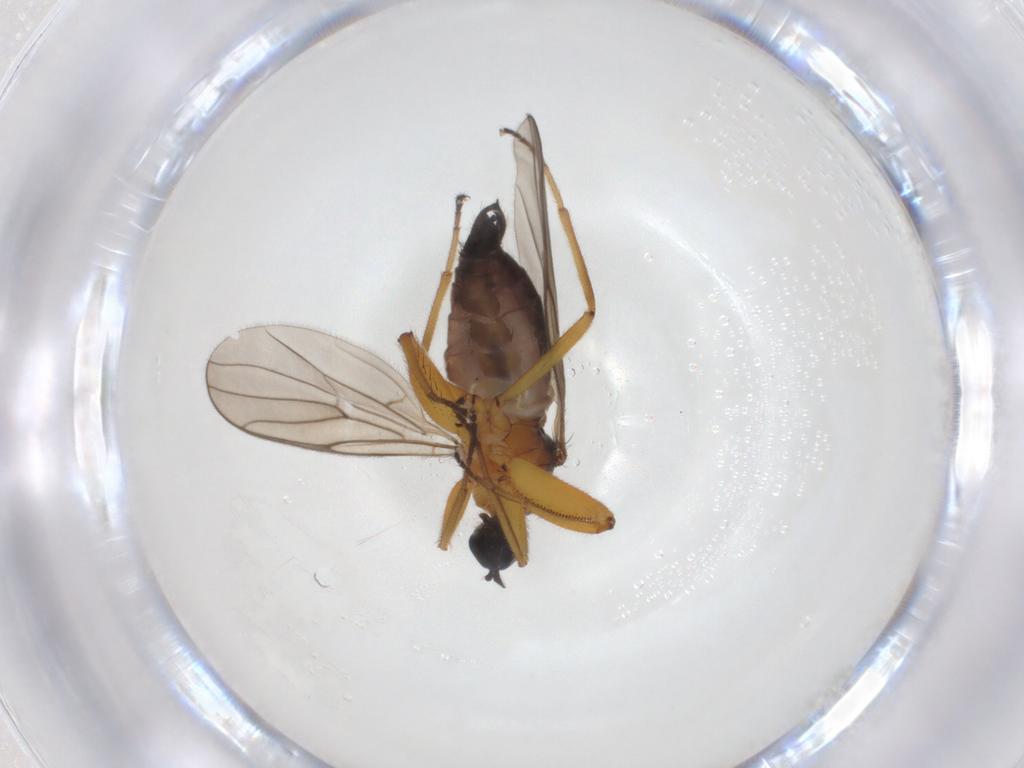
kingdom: Animalia
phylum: Arthropoda
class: Insecta
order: Diptera
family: Hybotidae
